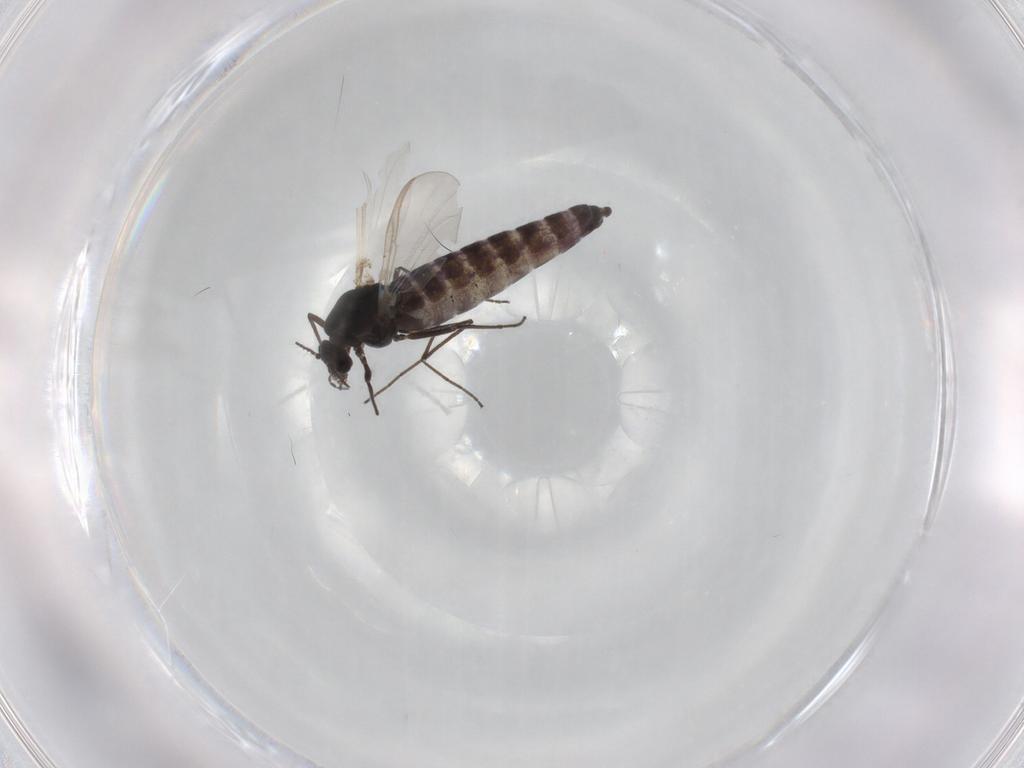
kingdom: Animalia
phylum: Arthropoda
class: Insecta
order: Diptera
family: Chironomidae
